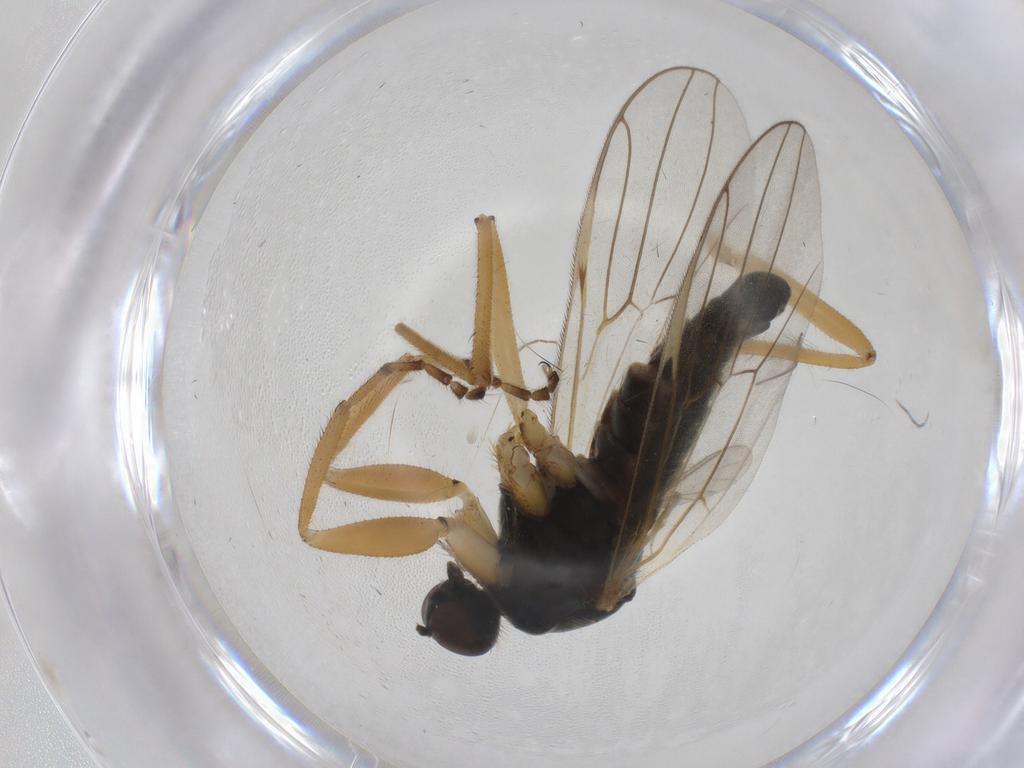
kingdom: Animalia
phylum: Arthropoda
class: Insecta
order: Diptera
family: Hybotidae
